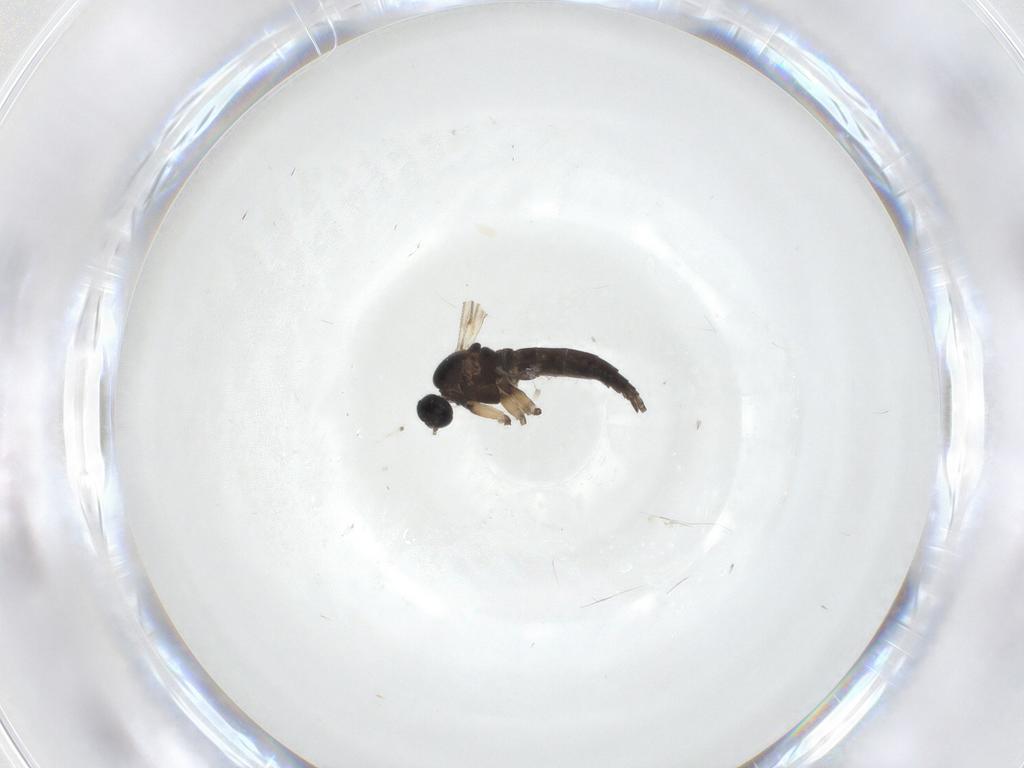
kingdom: Animalia
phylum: Arthropoda
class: Insecta
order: Diptera
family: Sciaridae
